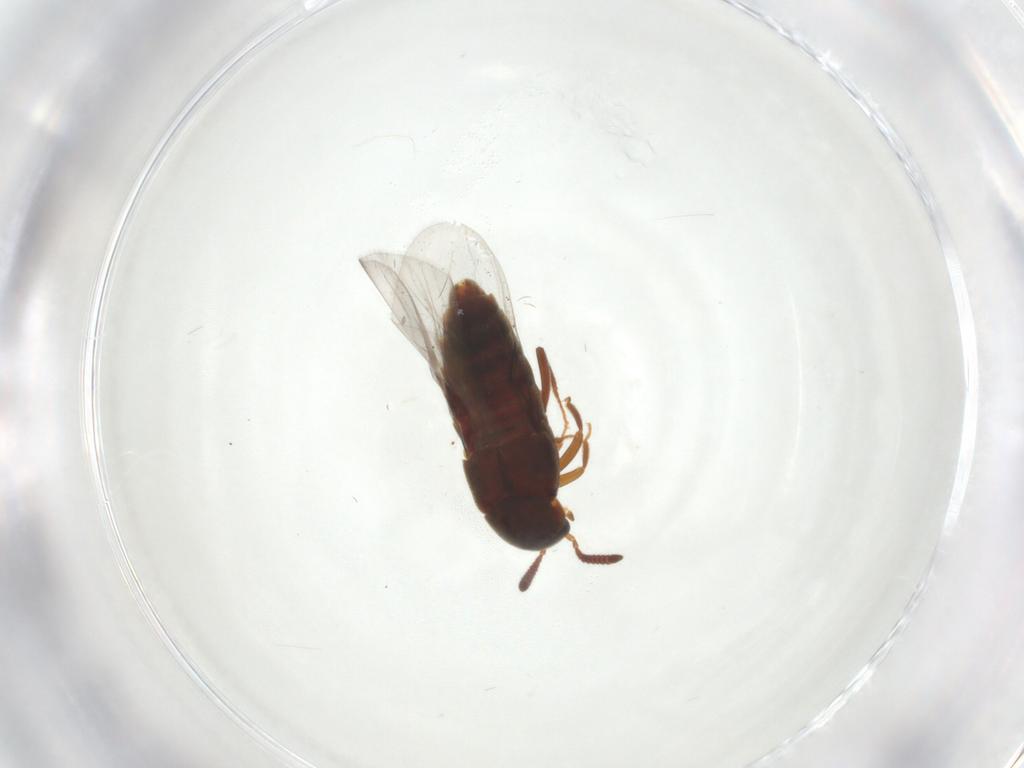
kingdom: Animalia
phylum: Arthropoda
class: Insecta
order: Coleoptera
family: Staphylinidae
